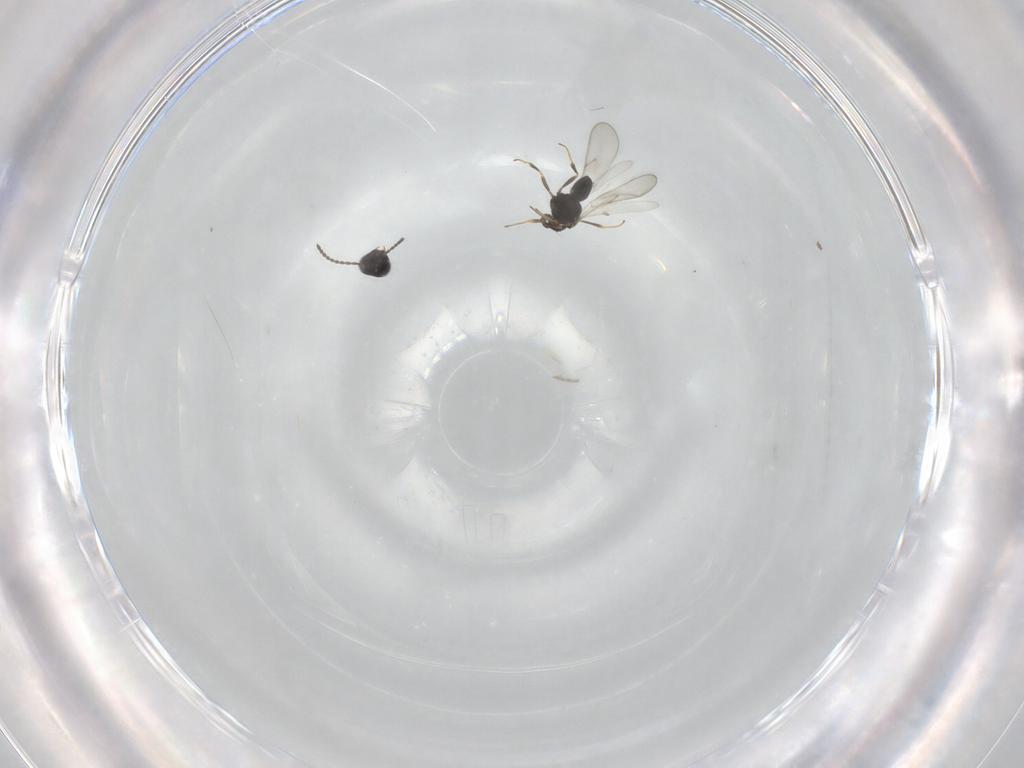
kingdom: Animalia
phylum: Arthropoda
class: Insecta
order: Hymenoptera
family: Scelionidae
